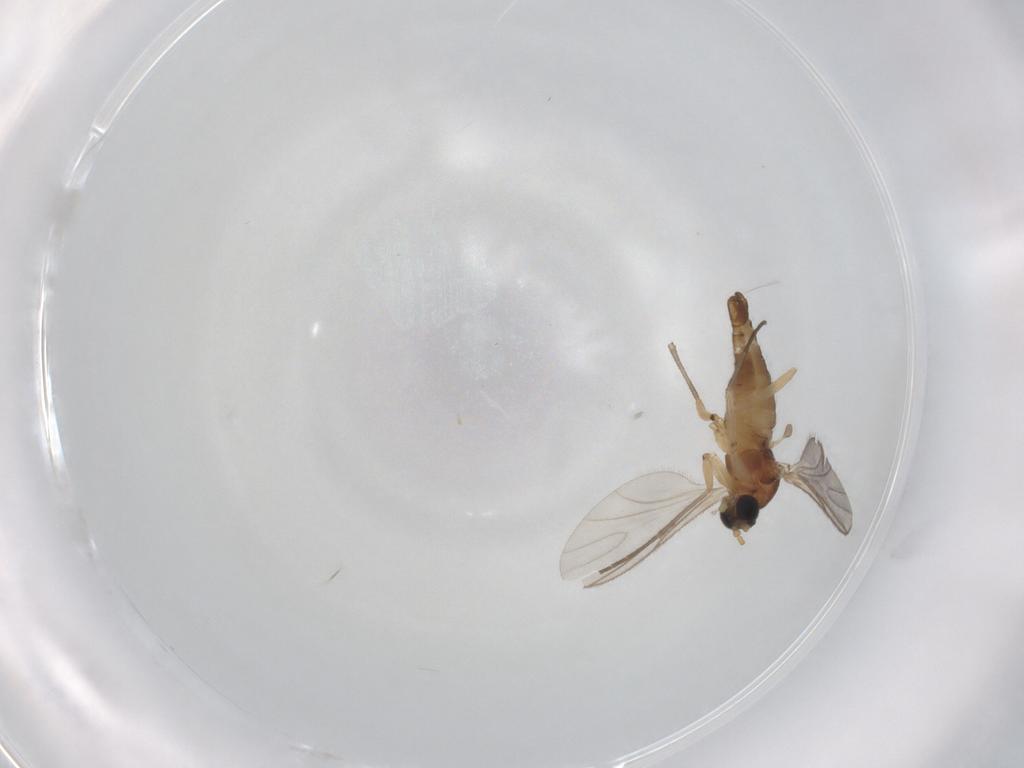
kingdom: Animalia
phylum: Arthropoda
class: Insecta
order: Diptera
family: Sciaridae
